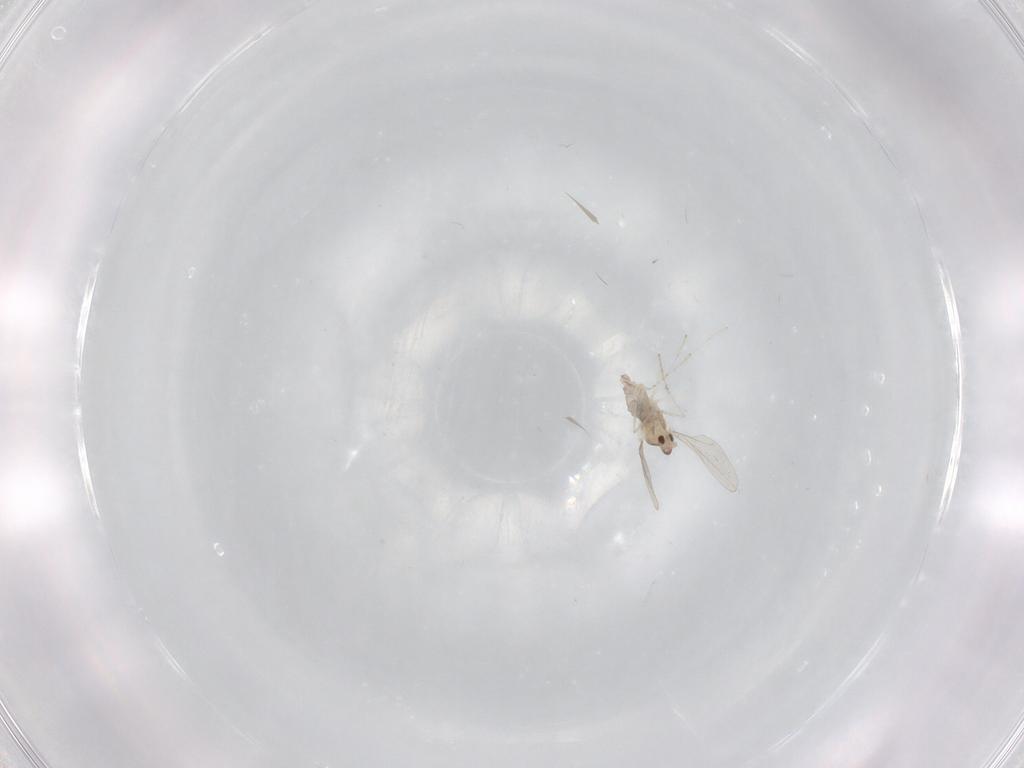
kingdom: Animalia
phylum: Arthropoda
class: Insecta
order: Diptera
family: Phoridae
